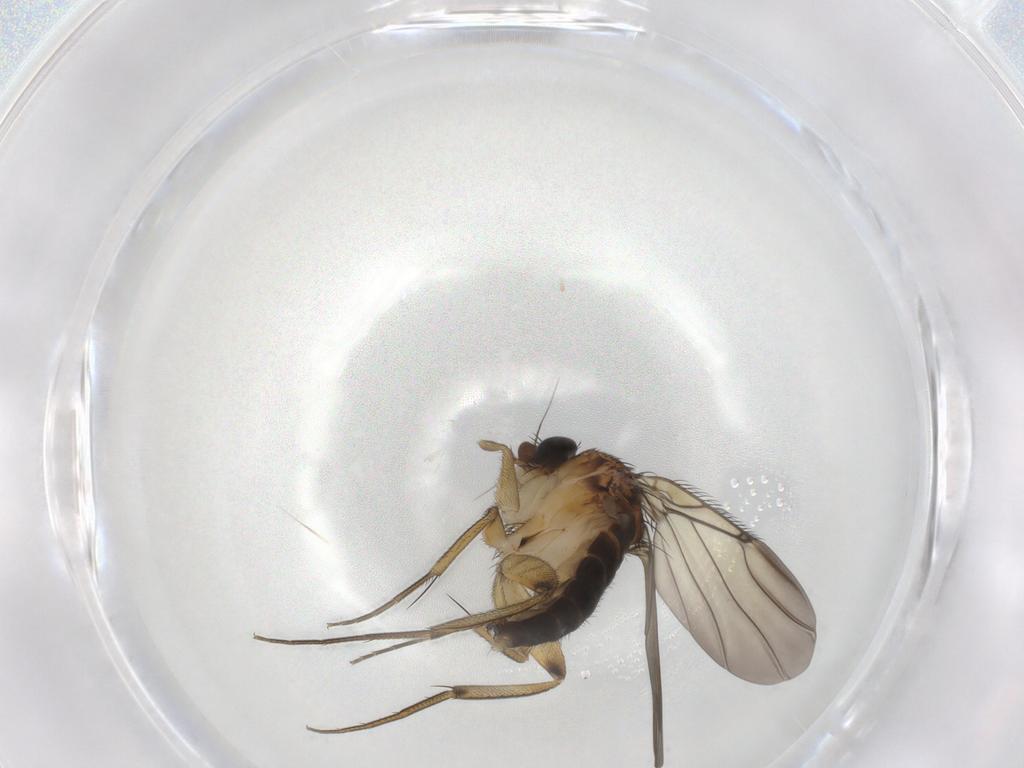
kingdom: Animalia
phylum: Arthropoda
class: Insecta
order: Diptera
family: Phoridae
